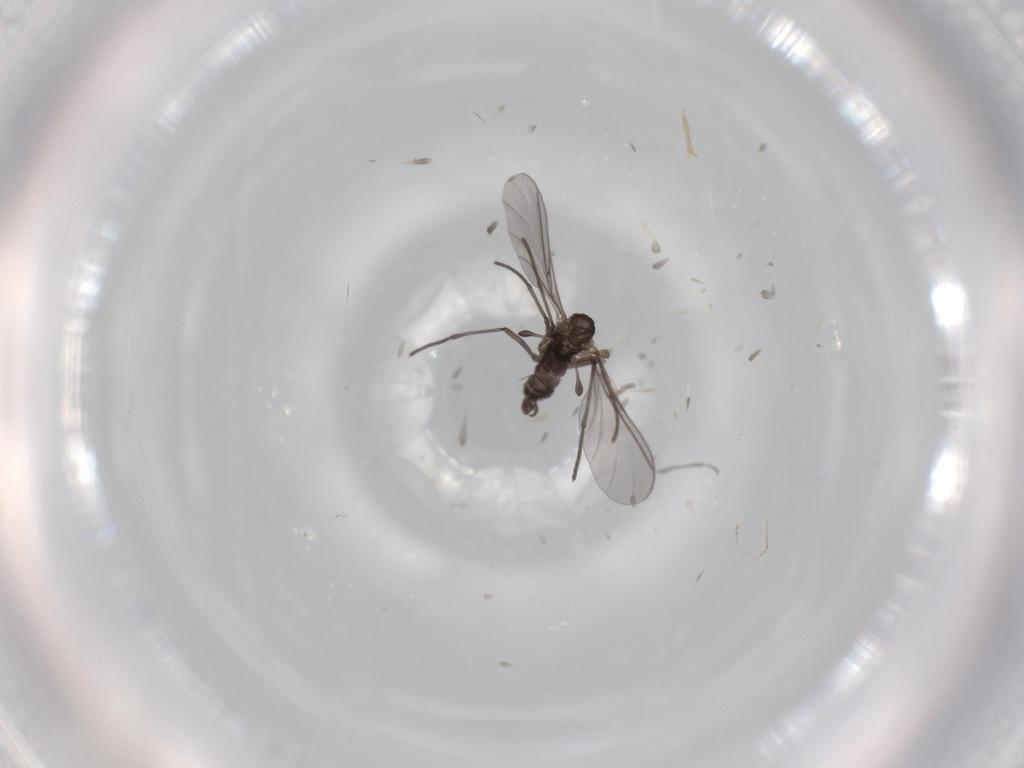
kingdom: Animalia
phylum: Arthropoda
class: Insecta
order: Diptera
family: Sciaridae
